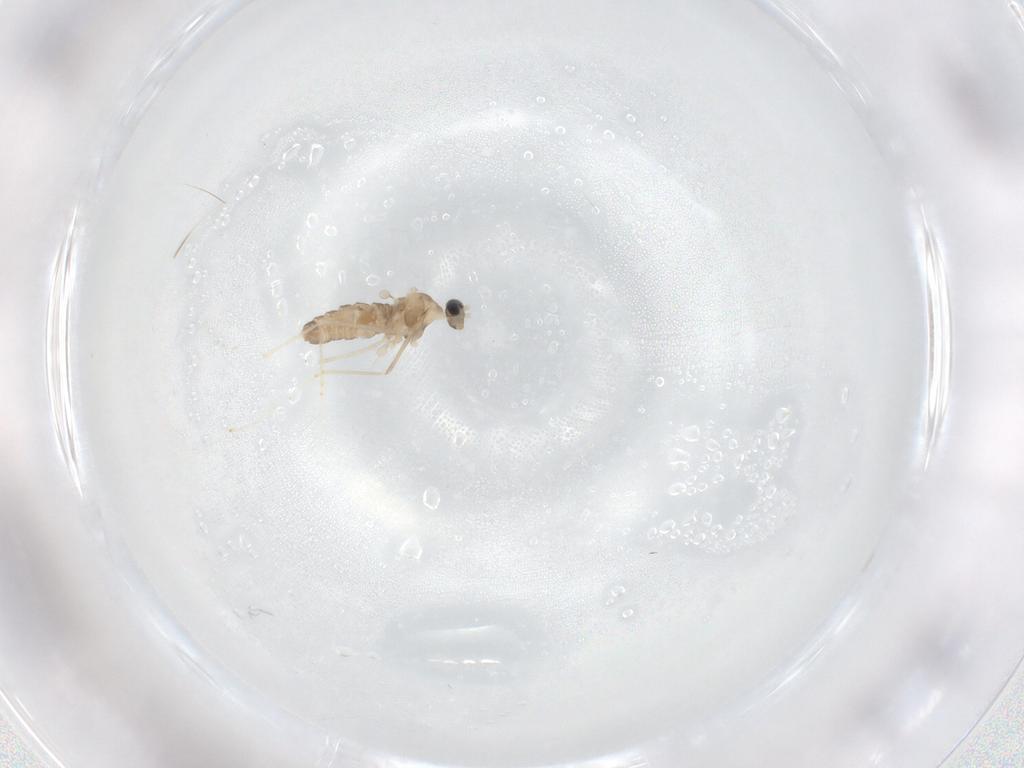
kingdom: Animalia
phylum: Arthropoda
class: Insecta
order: Diptera
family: Cecidomyiidae
